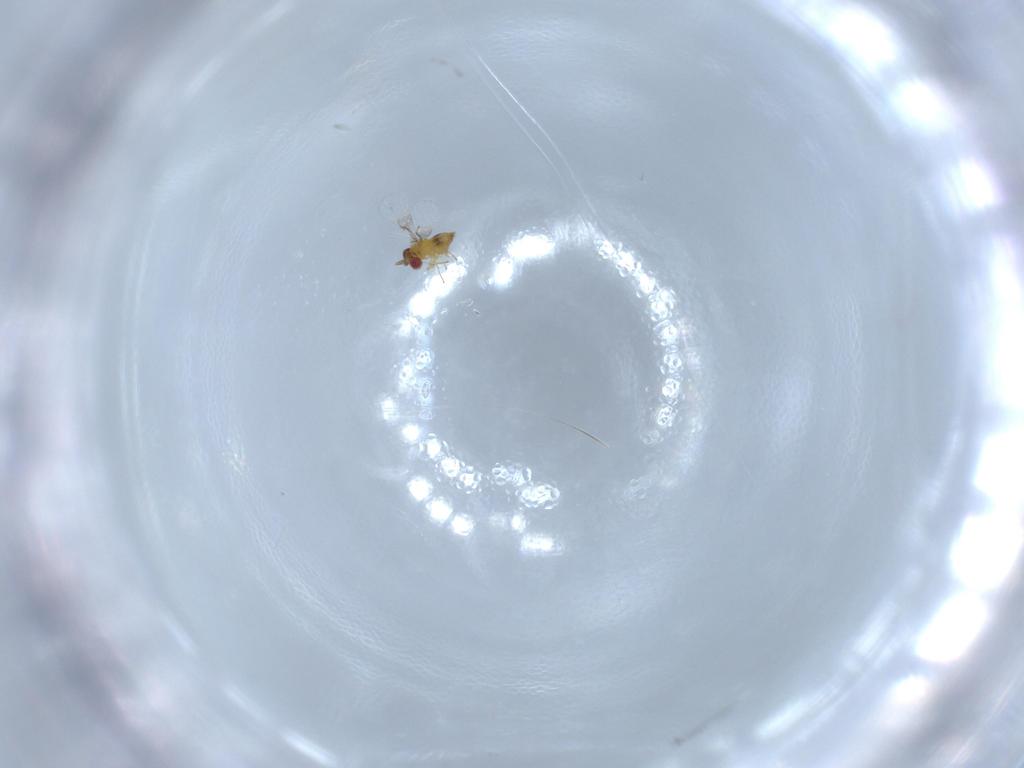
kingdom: Animalia
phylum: Arthropoda
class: Insecta
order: Hymenoptera
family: Trichogrammatidae
